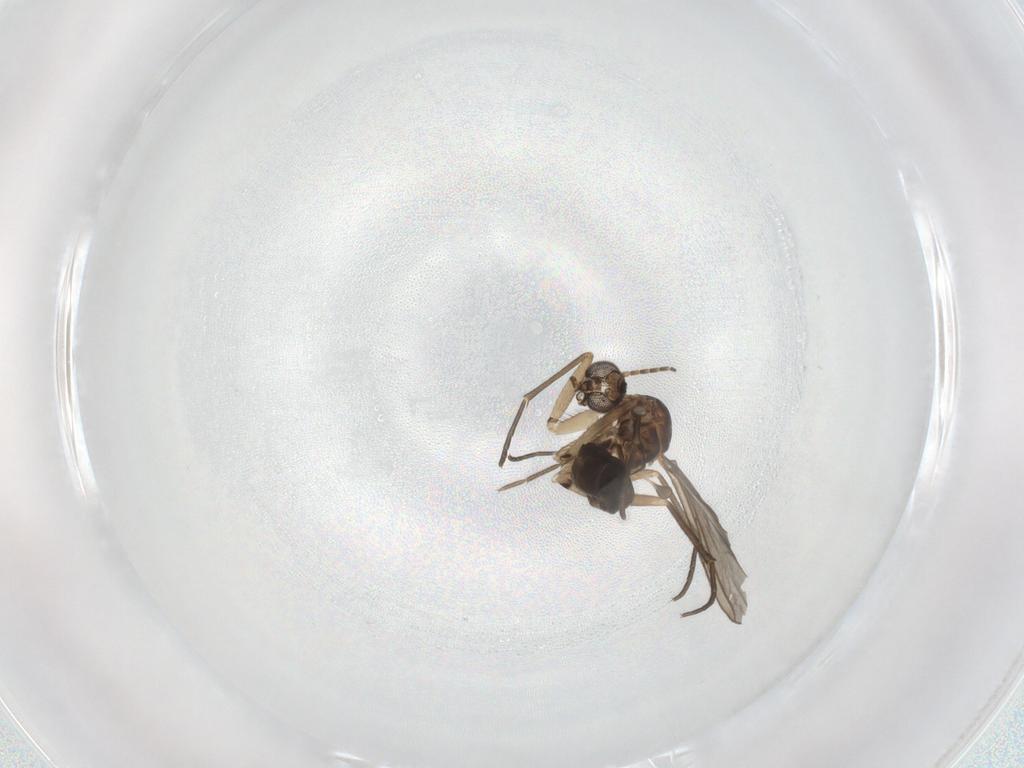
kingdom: Animalia
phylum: Arthropoda
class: Insecta
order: Diptera
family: Sciaridae
